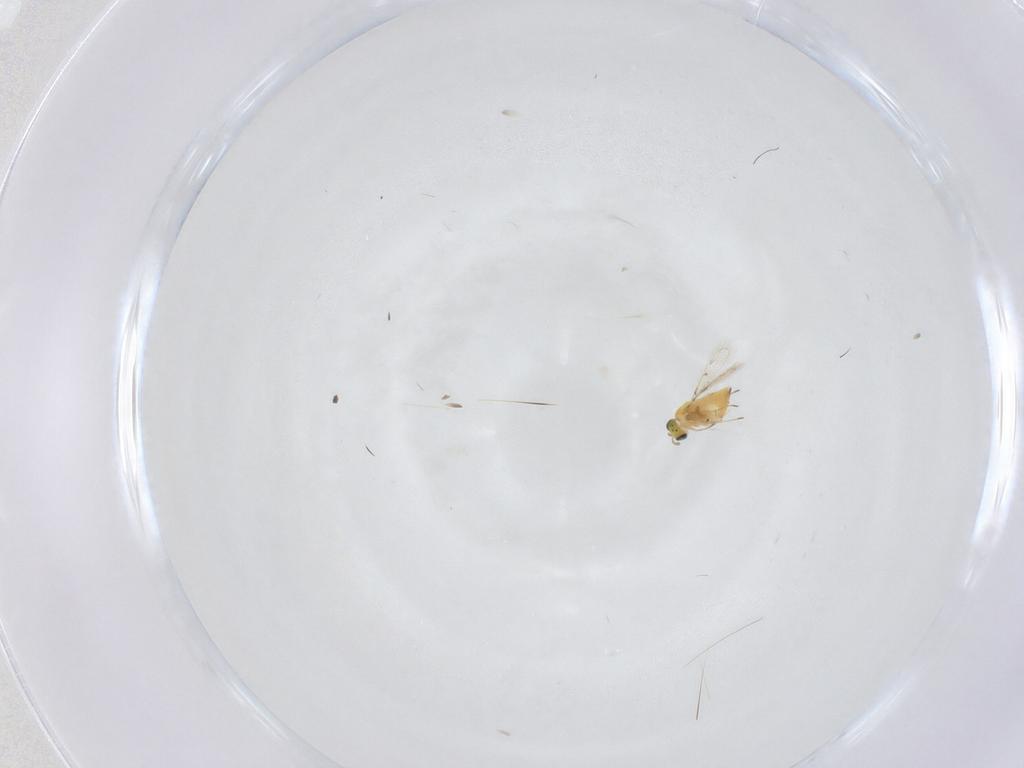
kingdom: Animalia
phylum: Arthropoda
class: Insecta
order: Hymenoptera
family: Trichogrammatidae
